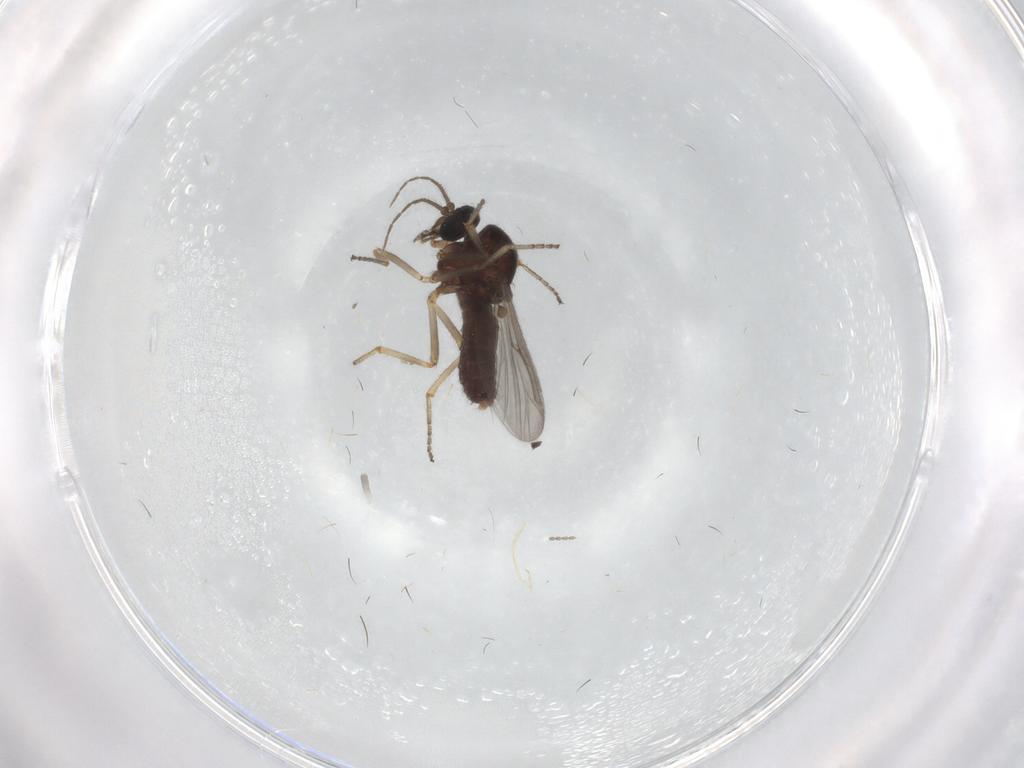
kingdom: Animalia
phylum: Arthropoda
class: Insecta
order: Diptera
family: Ceratopogonidae
